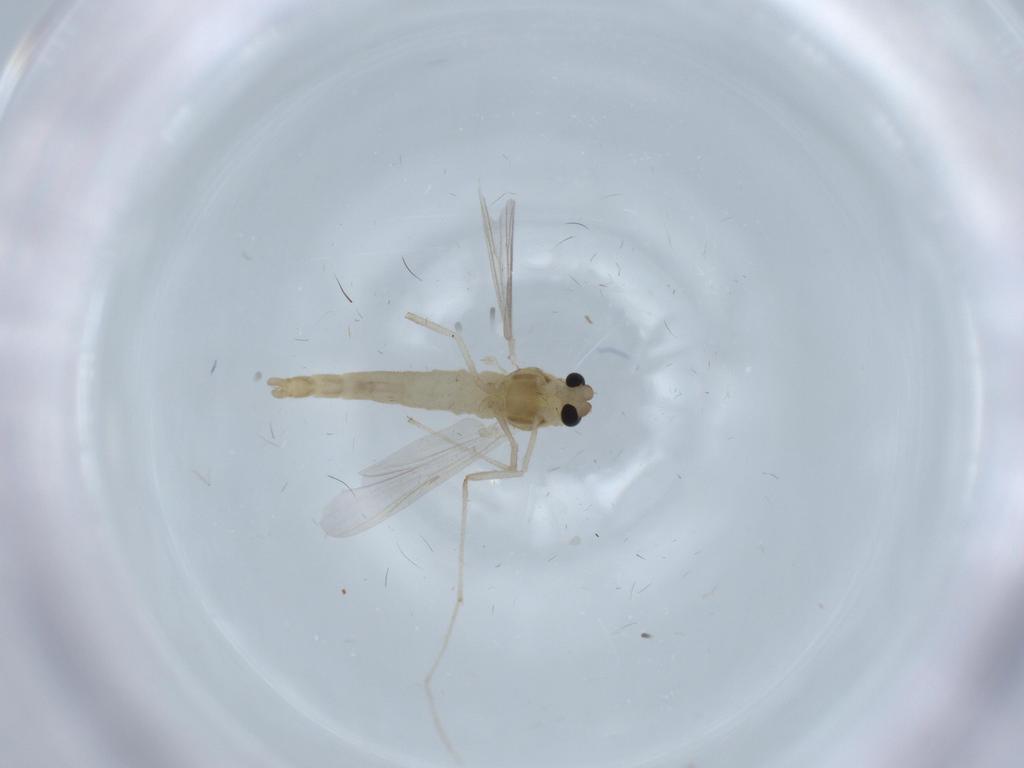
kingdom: Animalia
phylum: Arthropoda
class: Insecta
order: Diptera
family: Chironomidae
